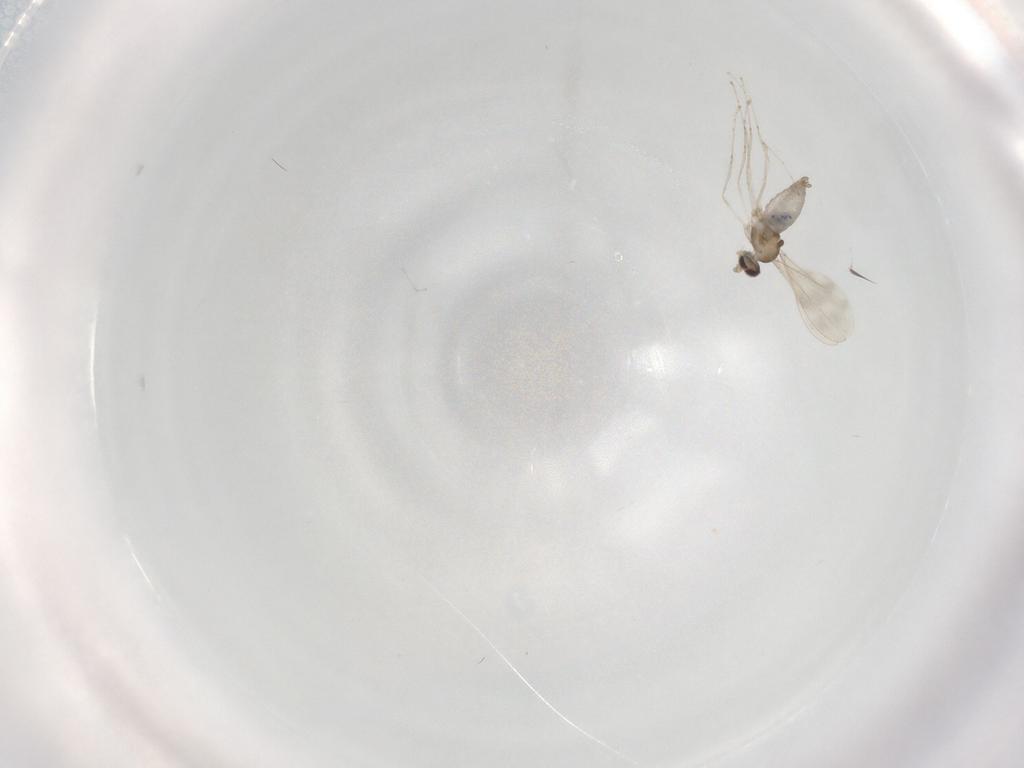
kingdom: Animalia
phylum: Arthropoda
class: Insecta
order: Diptera
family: Cecidomyiidae
